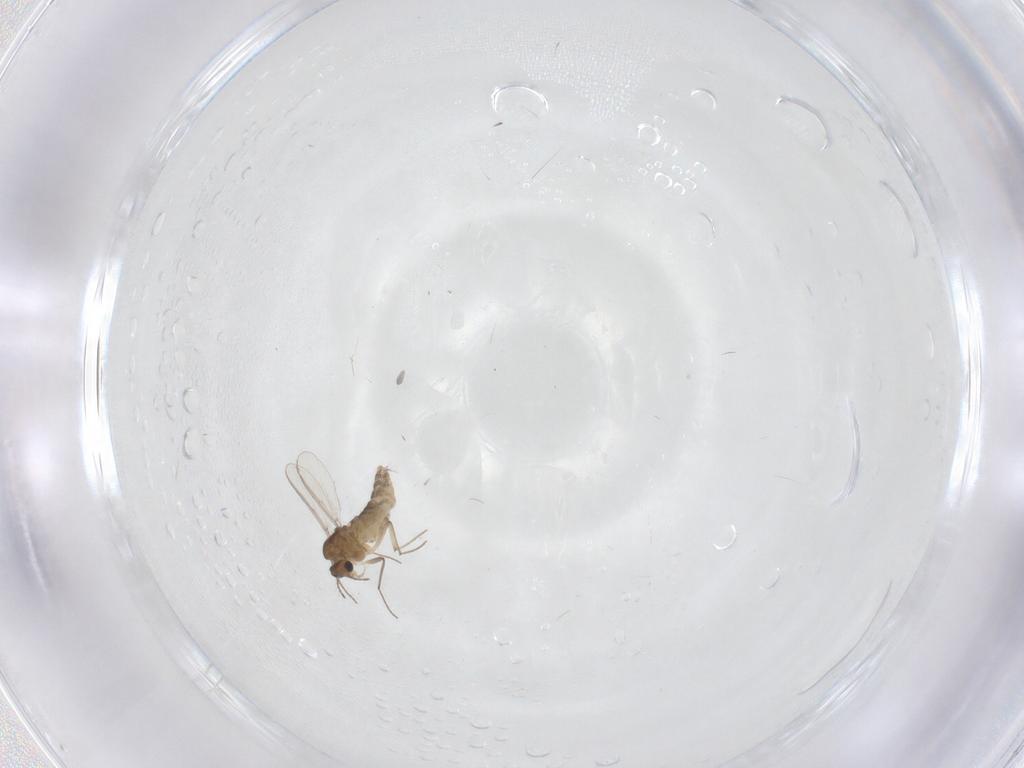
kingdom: Animalia
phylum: Arthropoda
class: Insecta
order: Diptera
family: Chironomidae
